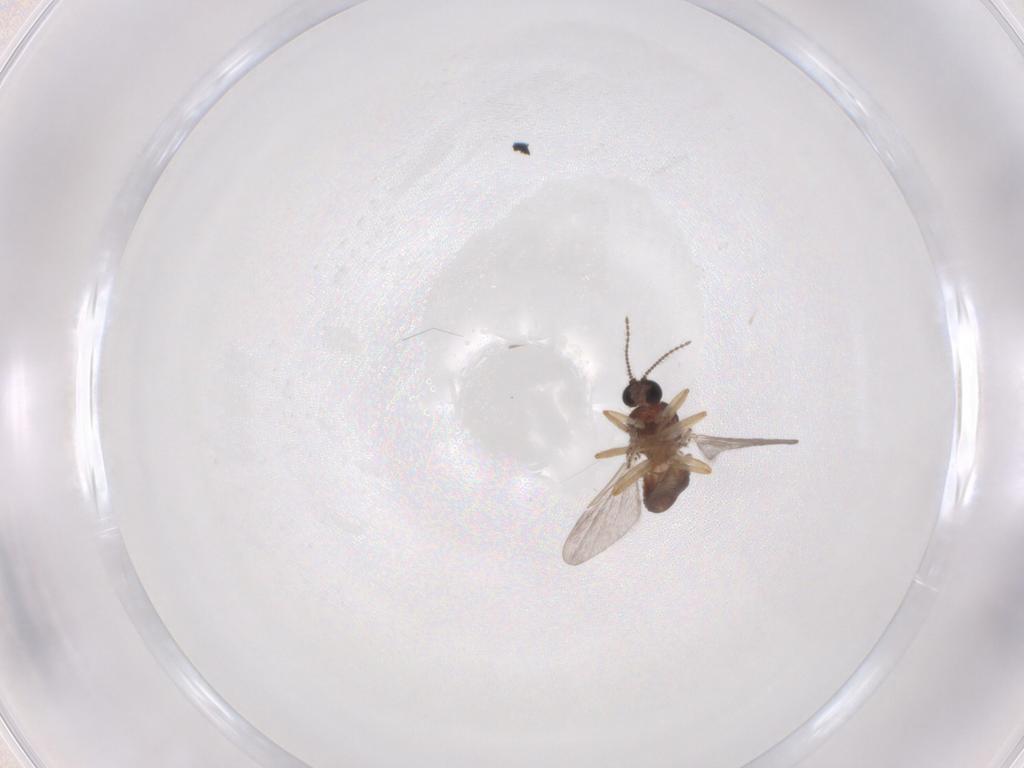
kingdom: Animalia
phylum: Arthropoda
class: Insecta
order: Diptera
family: Ceratopogonidae
